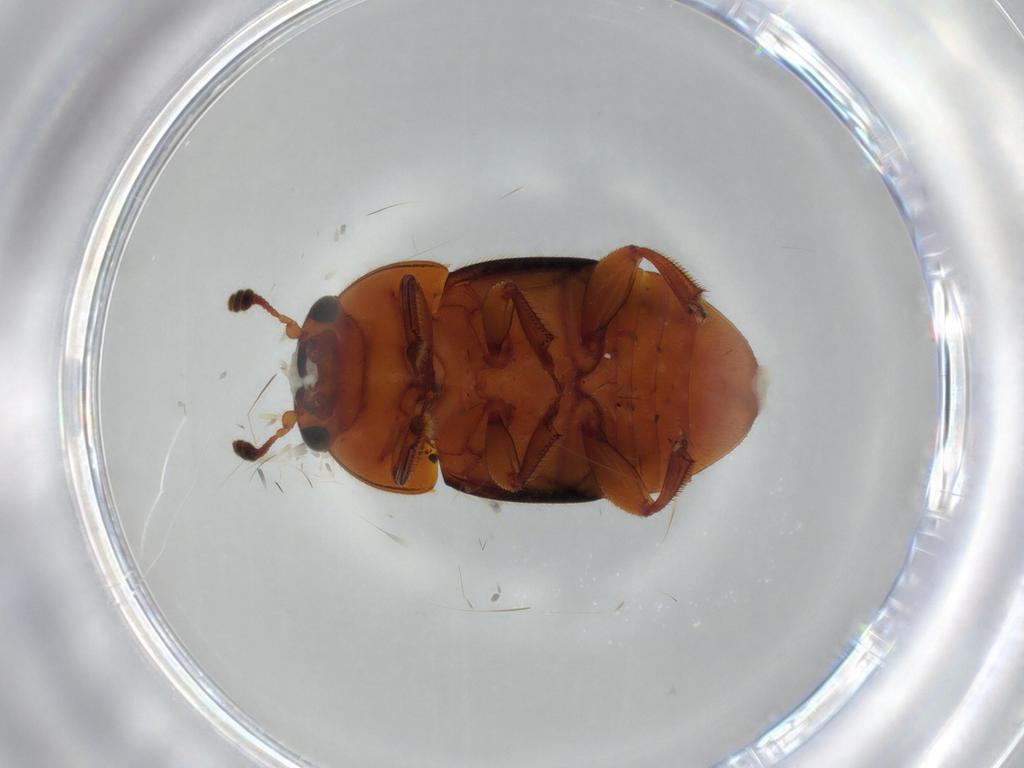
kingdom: Animalia
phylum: Arthropoda
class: Insecta
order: Coleoptera
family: Nitidulidae
